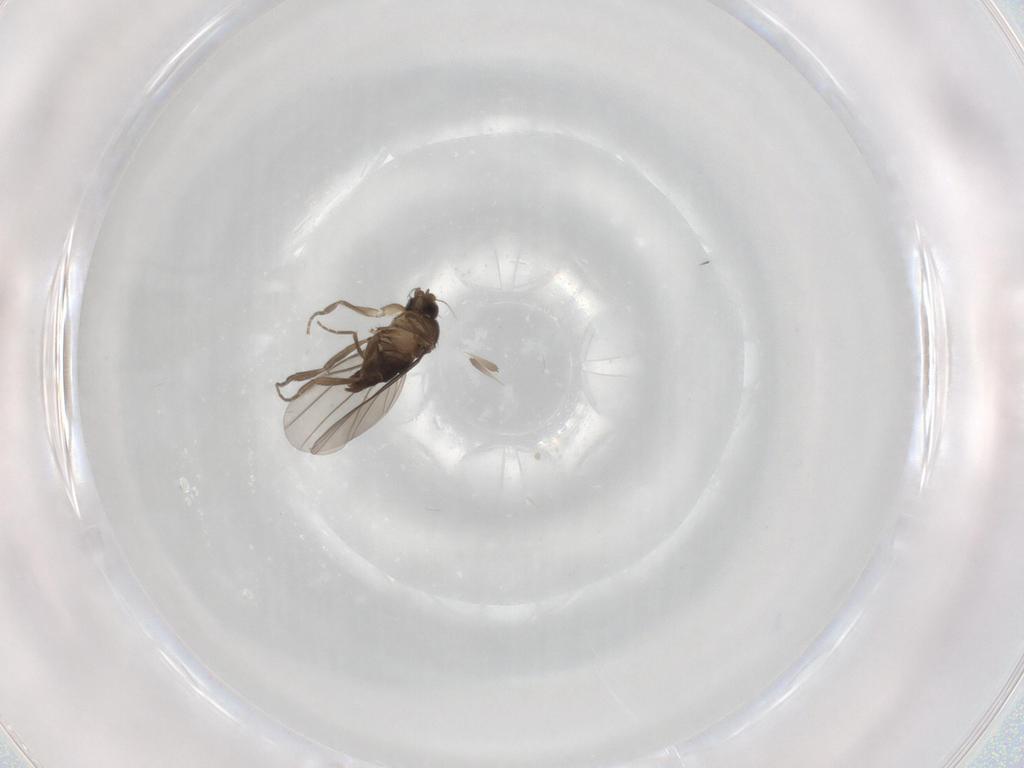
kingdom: Animalia
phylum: Arthropoda
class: Insecta
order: Diptera
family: Phoridae
